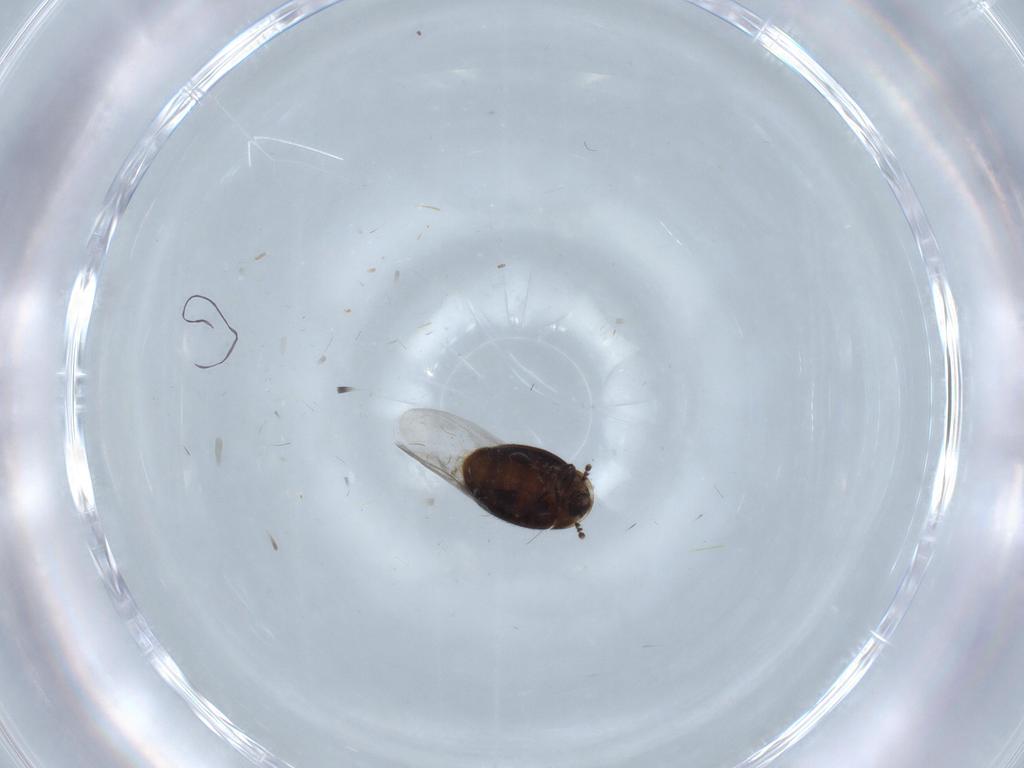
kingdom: Animalia
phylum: Arthropoda
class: Insecta
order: Coleoptera
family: Corylophidae
